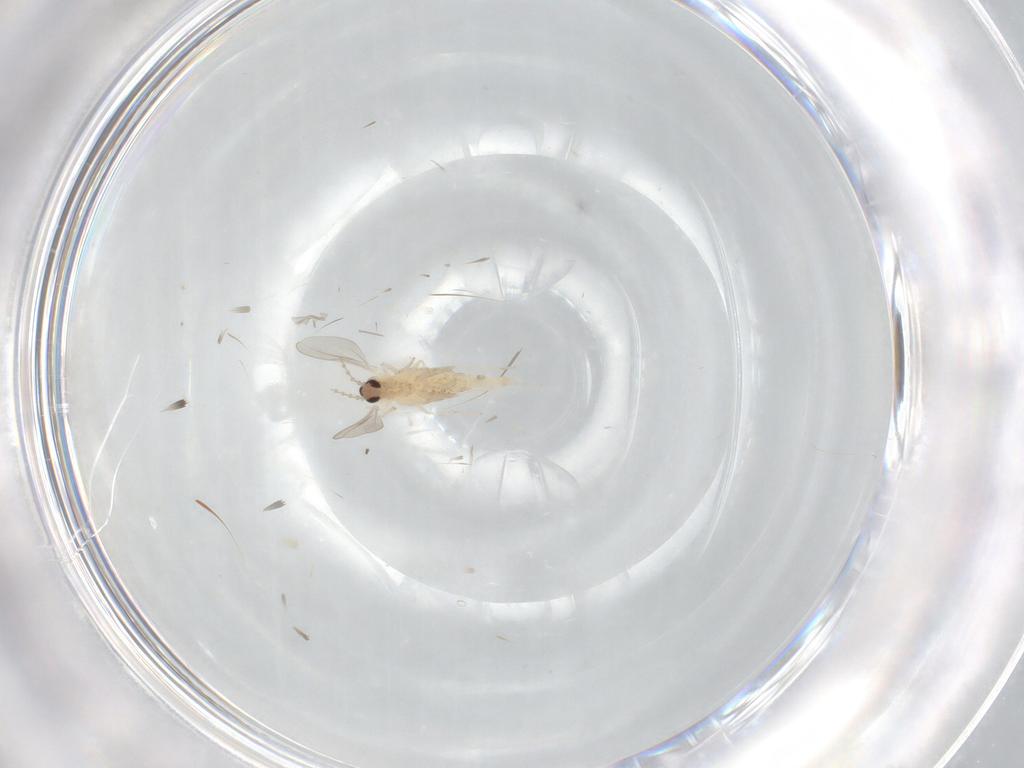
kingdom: Animalia
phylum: Arthropoda
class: Insecta
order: Diptera
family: Cecidomyiidae
